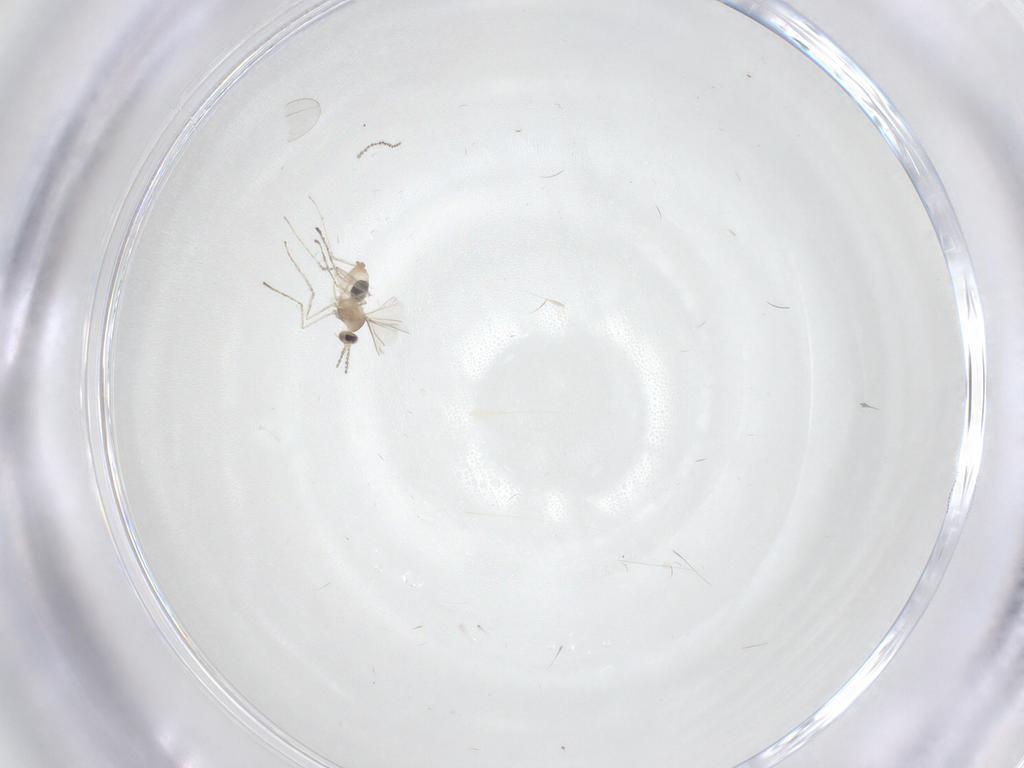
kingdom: Animalia
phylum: Arthropoda
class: Insecta
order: Diptera
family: Cecidomyiidae
